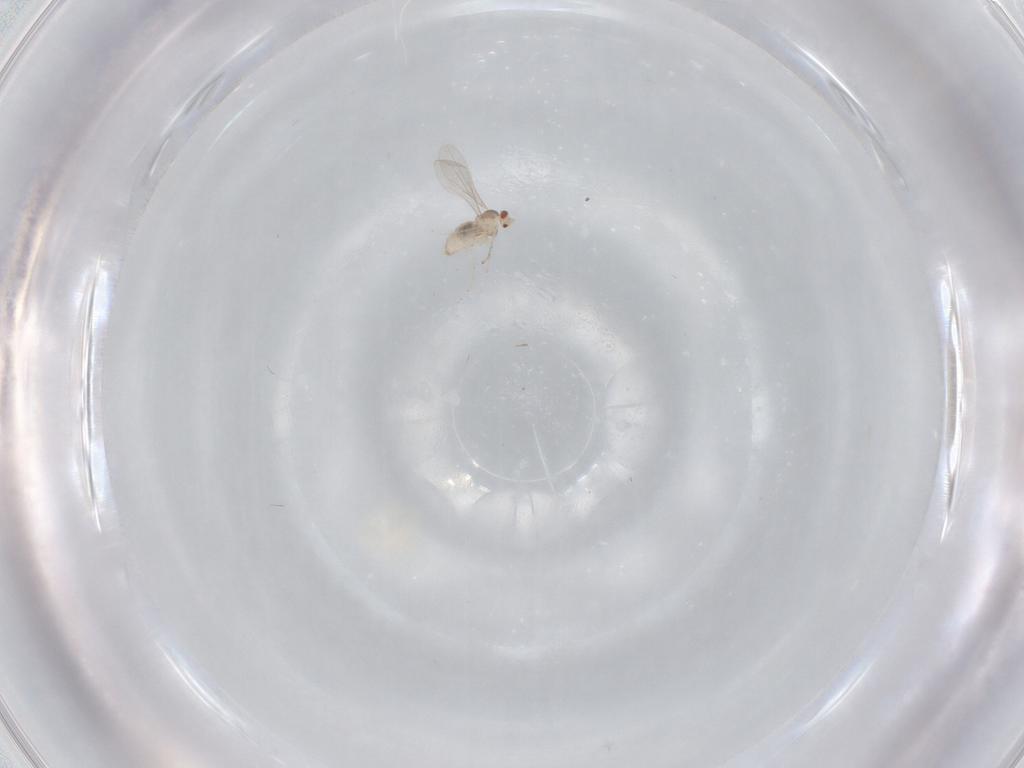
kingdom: Animalia
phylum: Arthropoda
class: Insecta
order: Diptera
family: Cecidomyiidae
